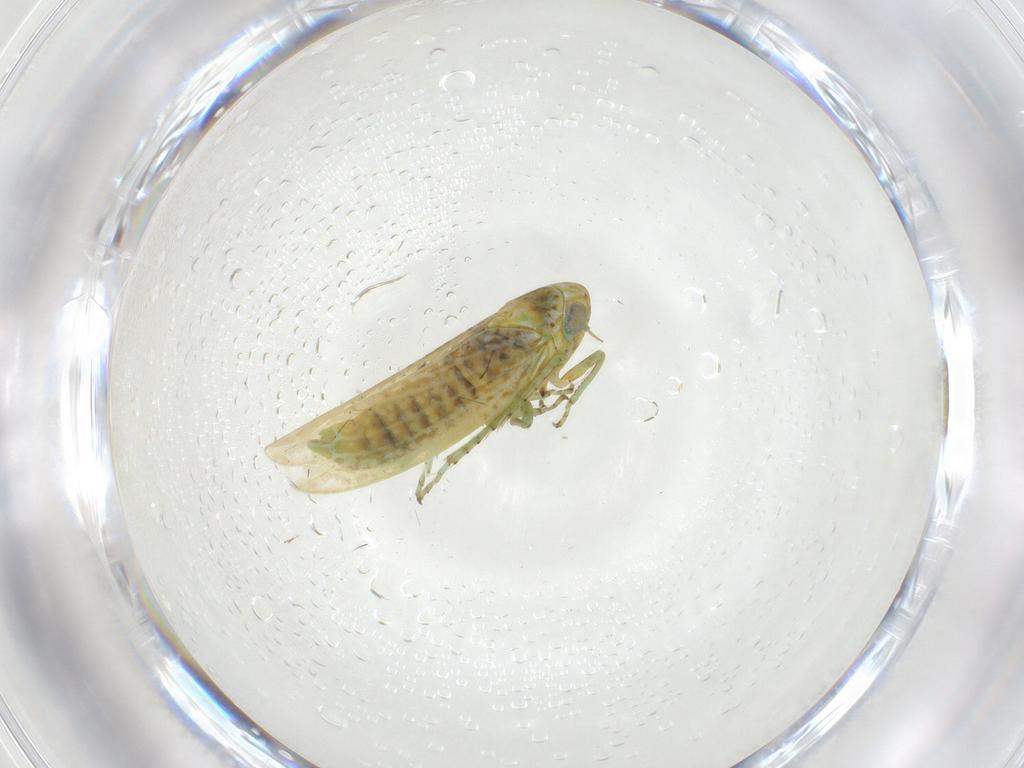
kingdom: Animalia
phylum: Arthropoda
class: Insecta
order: Hemiptera
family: Cicadellidae
